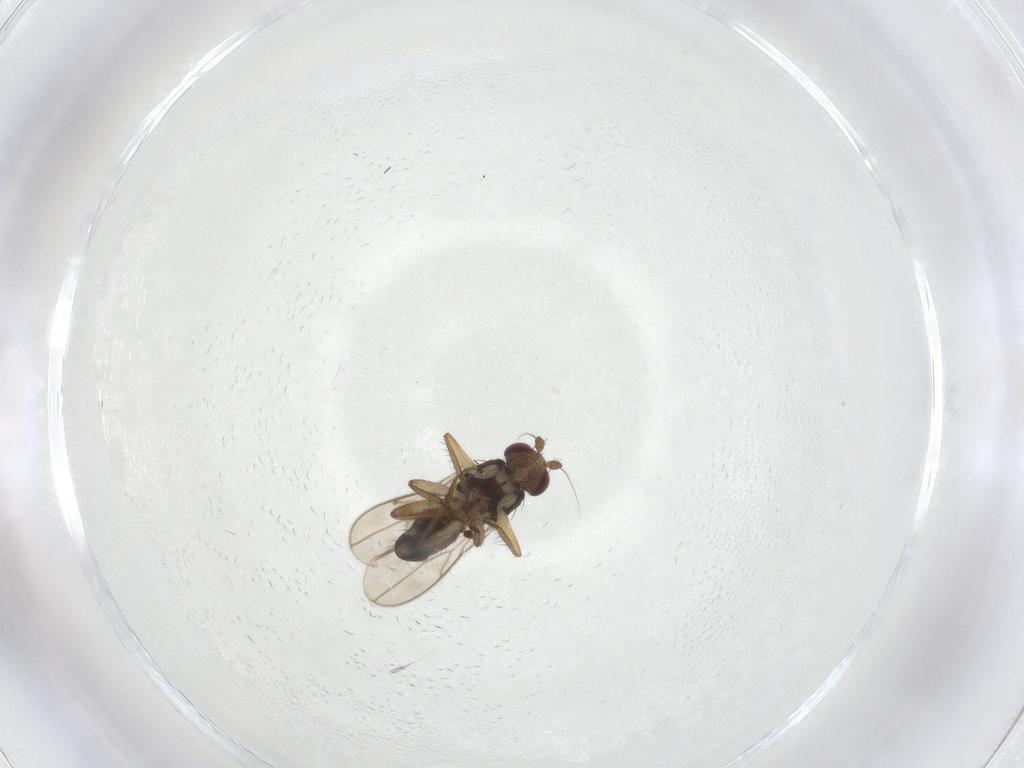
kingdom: Animalia
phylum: Arthropoda
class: Insecta
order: Diptera
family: Sphaeroceridae
